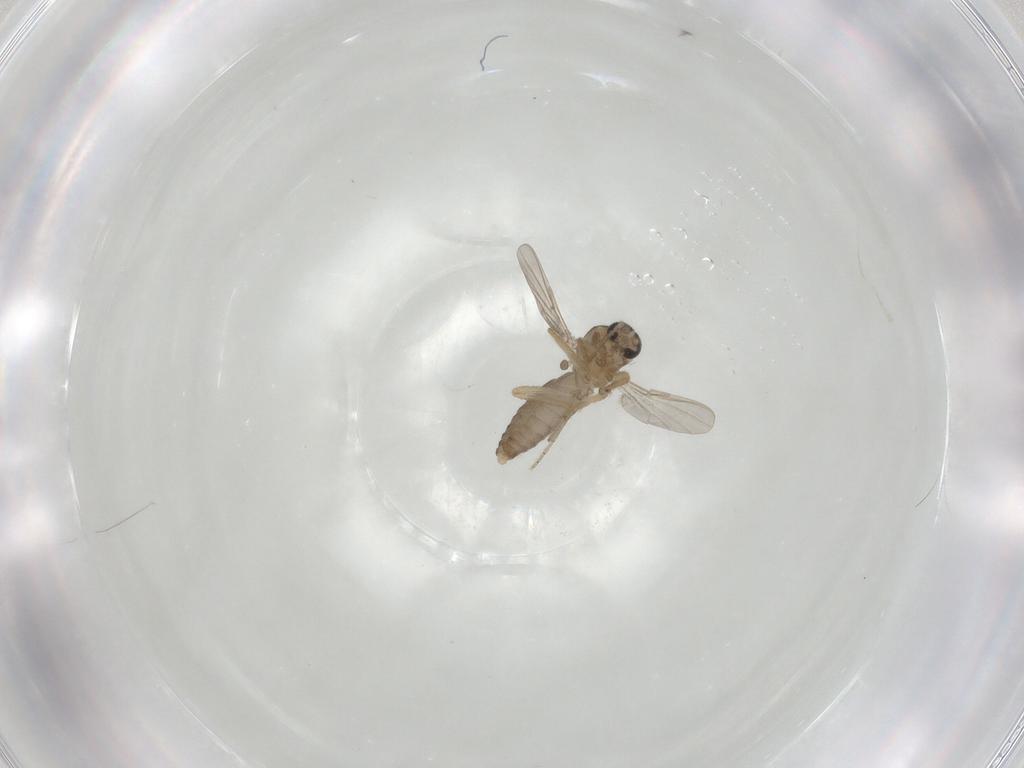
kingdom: Animalia
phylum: Arthropoda
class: Insecta
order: Diptera
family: Ceratopogonidae
